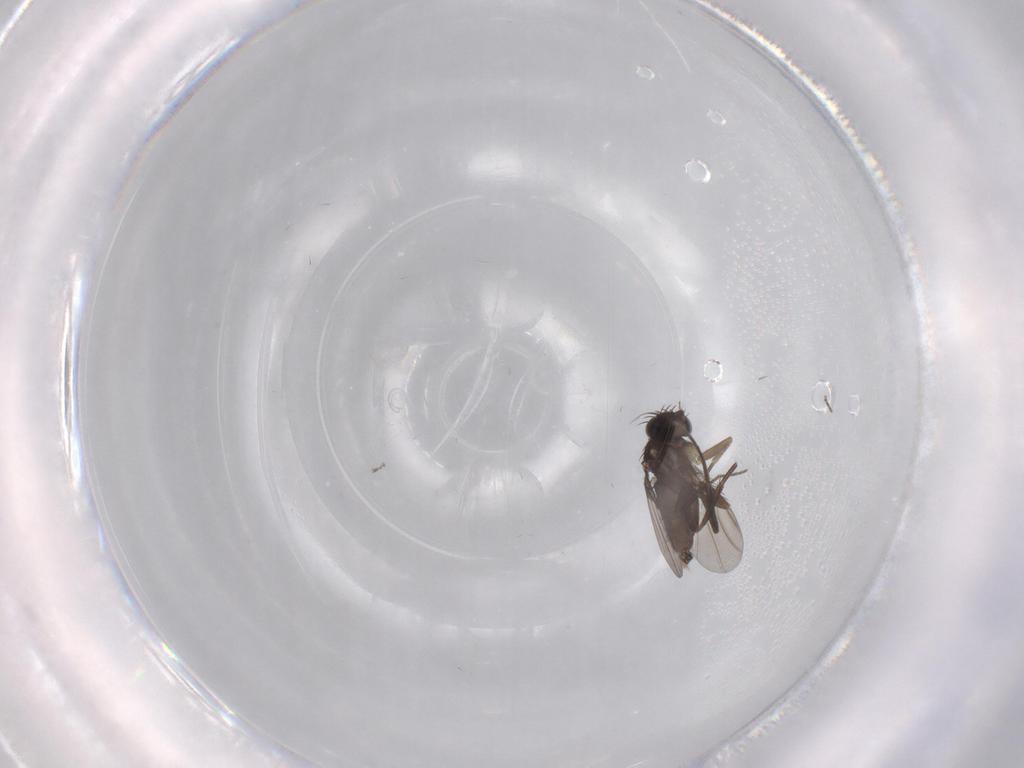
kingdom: Animalia
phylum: Arthropoda
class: Insecta
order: Diptera
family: Phoridae
